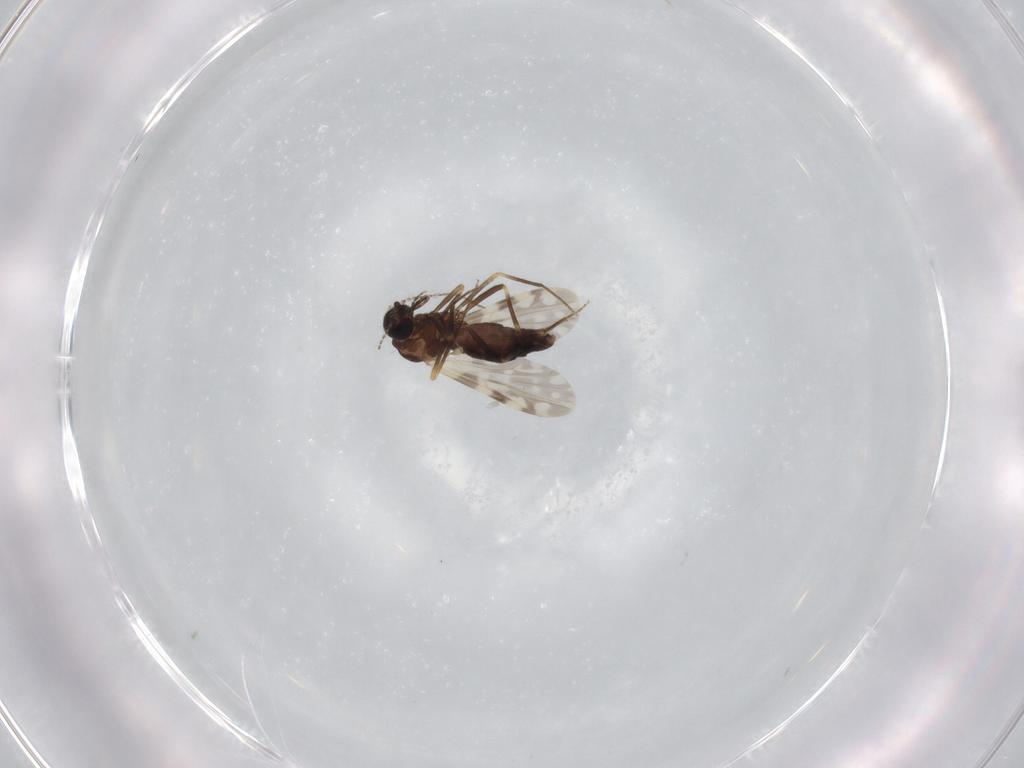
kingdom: Animalia
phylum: Arthropoda
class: Insecta
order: Diptera
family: Ceratopogonidae
